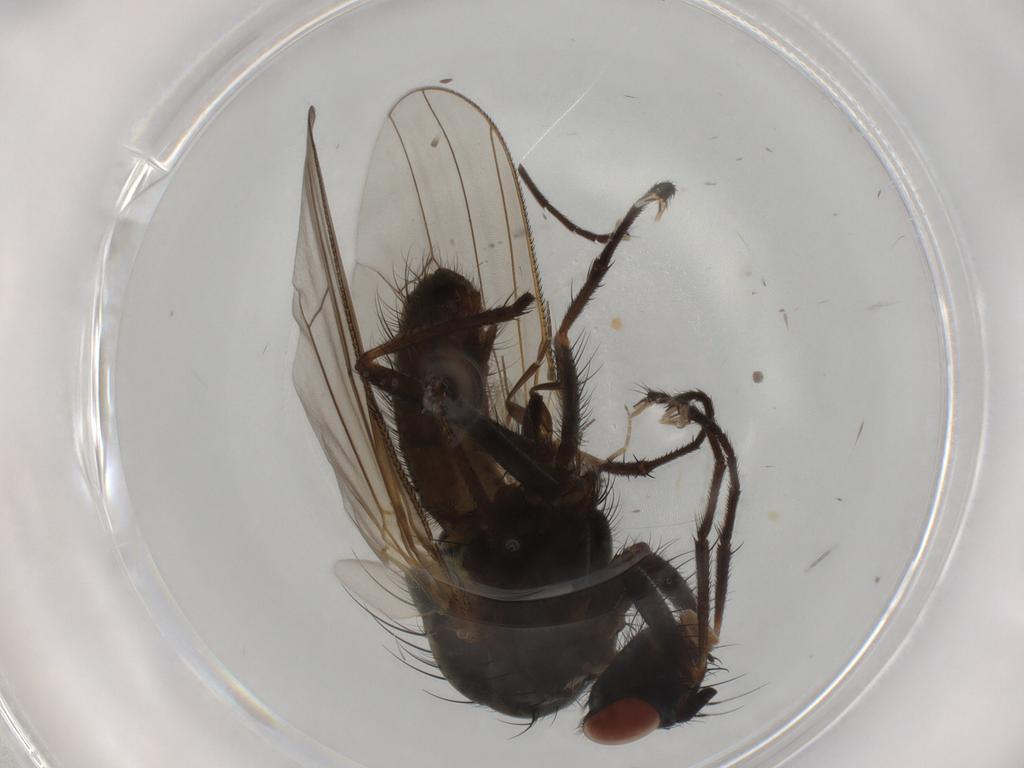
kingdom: Animalia
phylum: Arthropoda
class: Insecta
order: Diptera
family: Anthomyiidae
